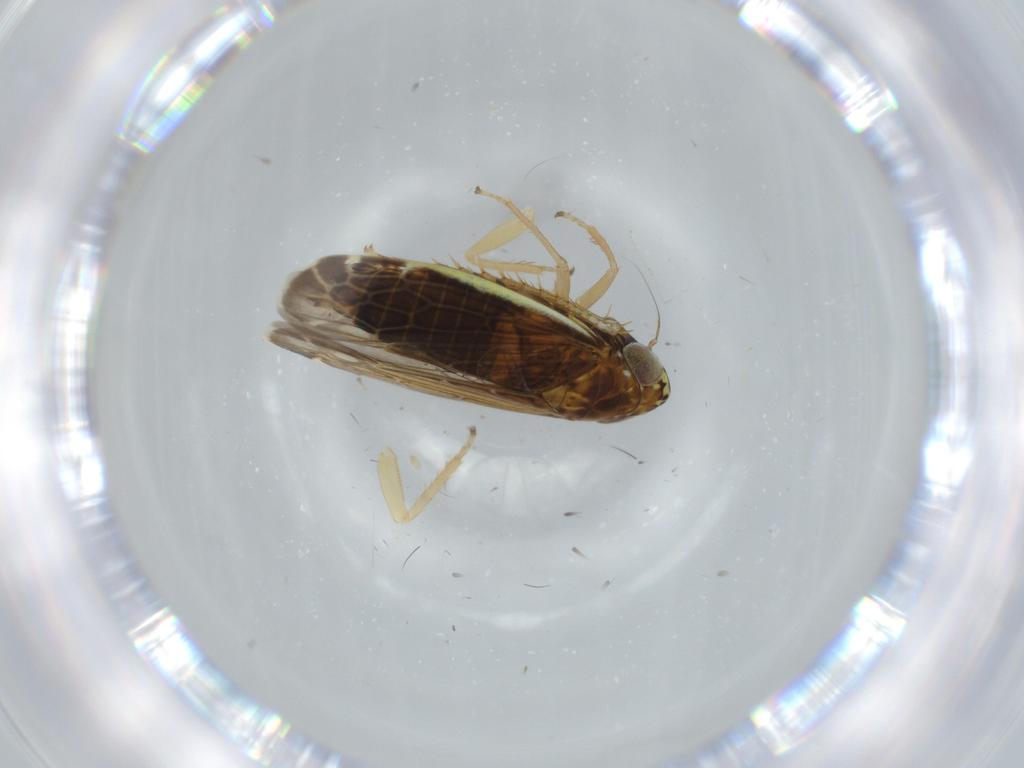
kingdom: Animalia
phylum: Arthropoda
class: Insecta
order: Hemiptera
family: Cicadellidae
